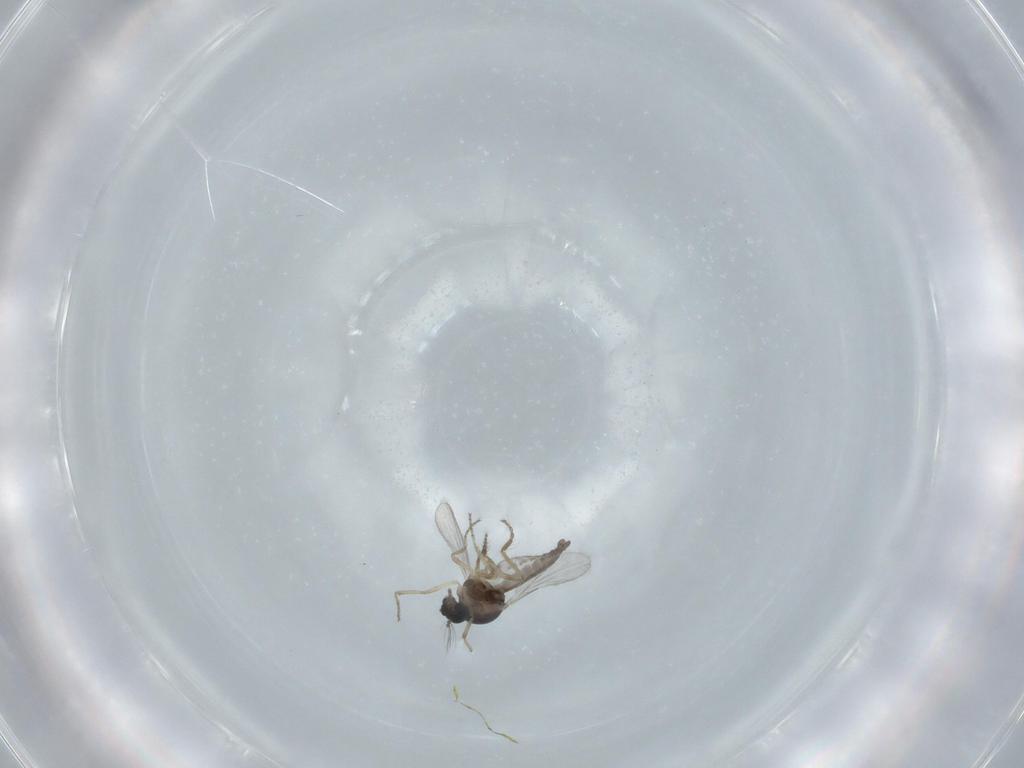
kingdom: Animalia
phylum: Arthropoda
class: Insecta
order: Diptera
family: Ceratopogonidae
